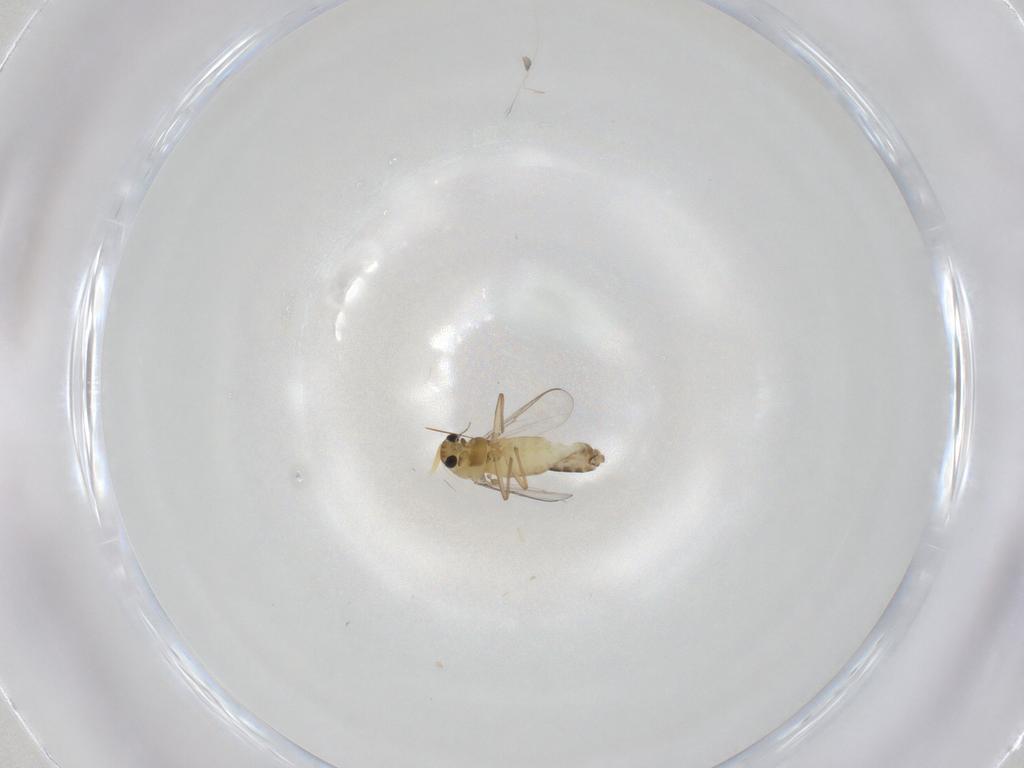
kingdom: Animalia
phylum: Arthropoda
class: Insecta
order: Diptera
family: Chironomidae
